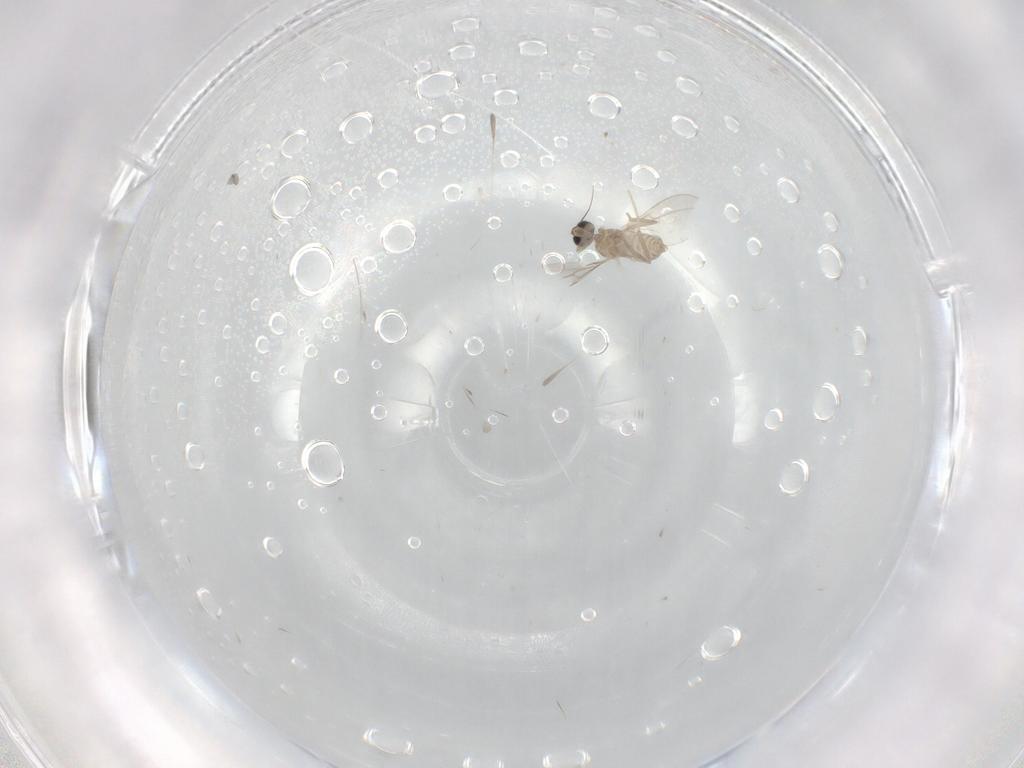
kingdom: Animalia
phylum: Arthropoda
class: Insecta
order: Diptera
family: Cecidomyiidae
